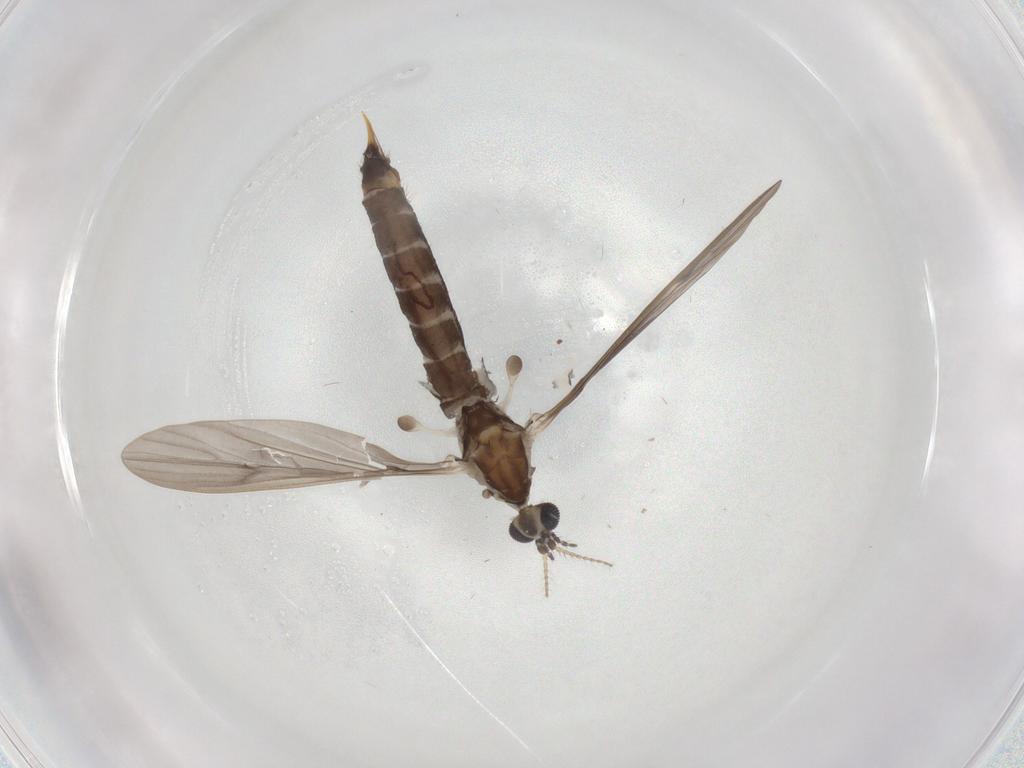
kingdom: Animalia
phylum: Arthropoda
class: Insecta
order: Diptera
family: Limoniidae
